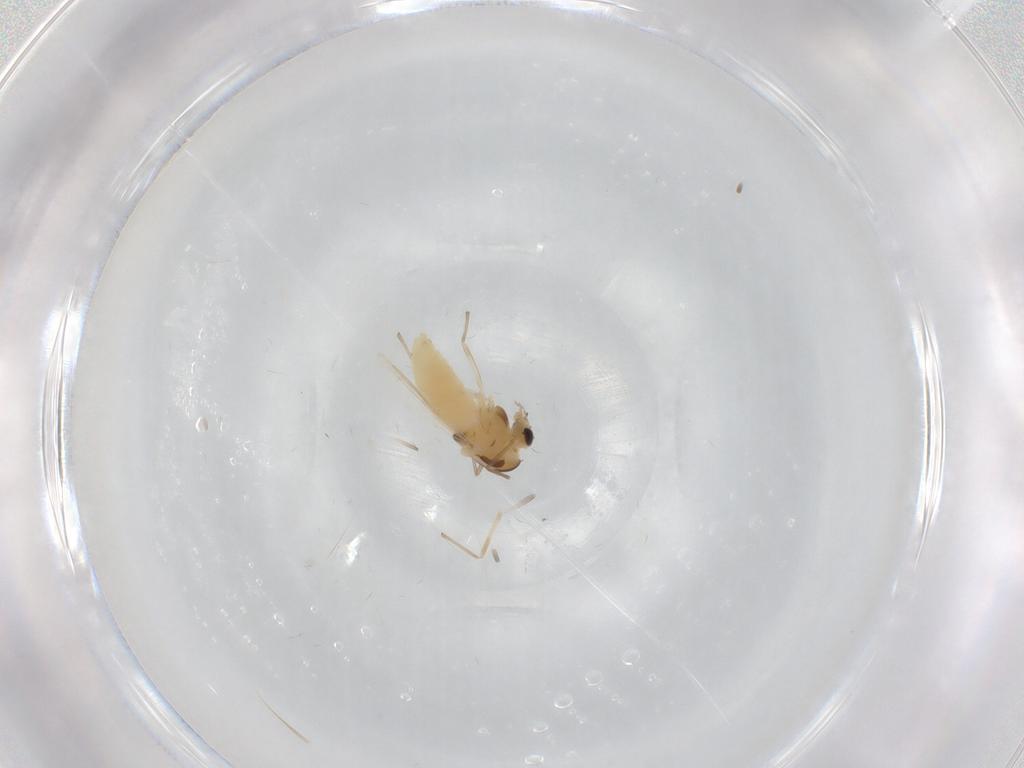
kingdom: Animalia
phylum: Arthropoda
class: Insecta
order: Diptera
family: Chironomidae
